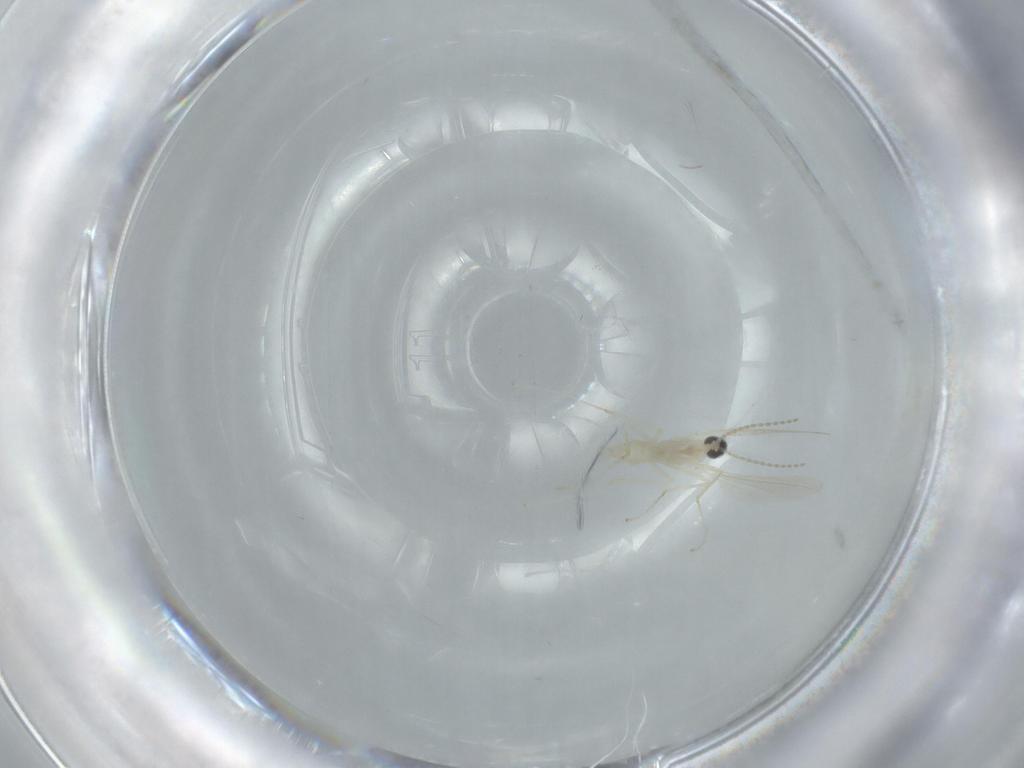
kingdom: Animalia
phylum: Arthropoda
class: Insecta
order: Diptera
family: Cecidomyiidae
